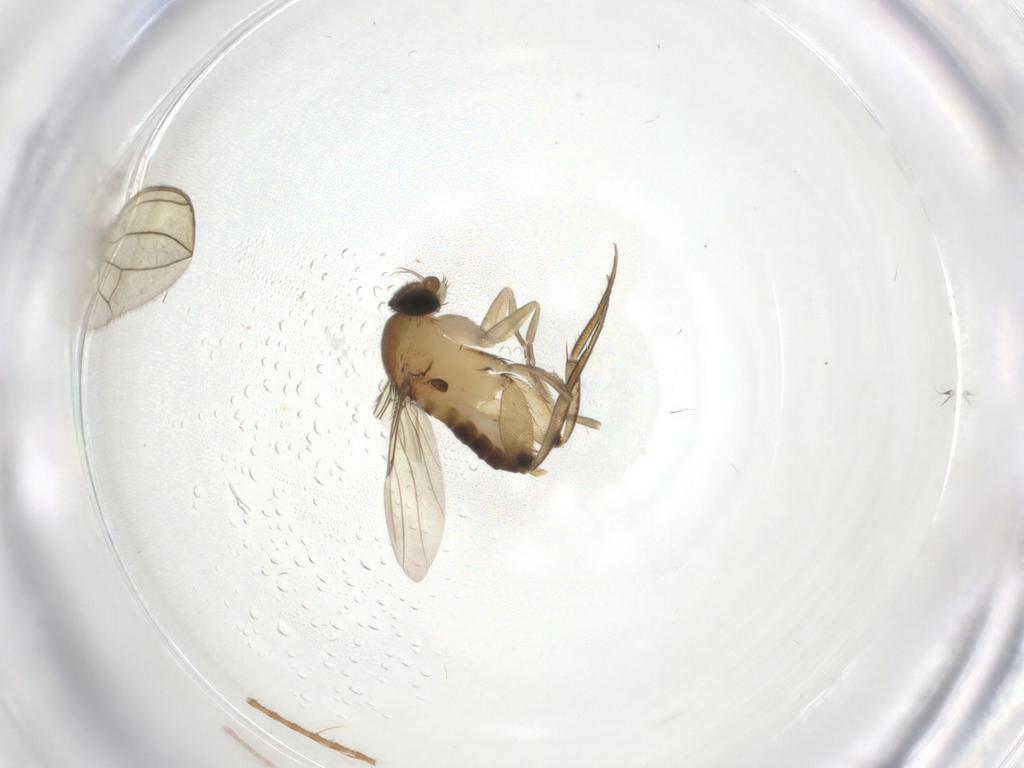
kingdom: Animalia
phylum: Arthropoda
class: Insecta
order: Diptera
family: Phoridae
